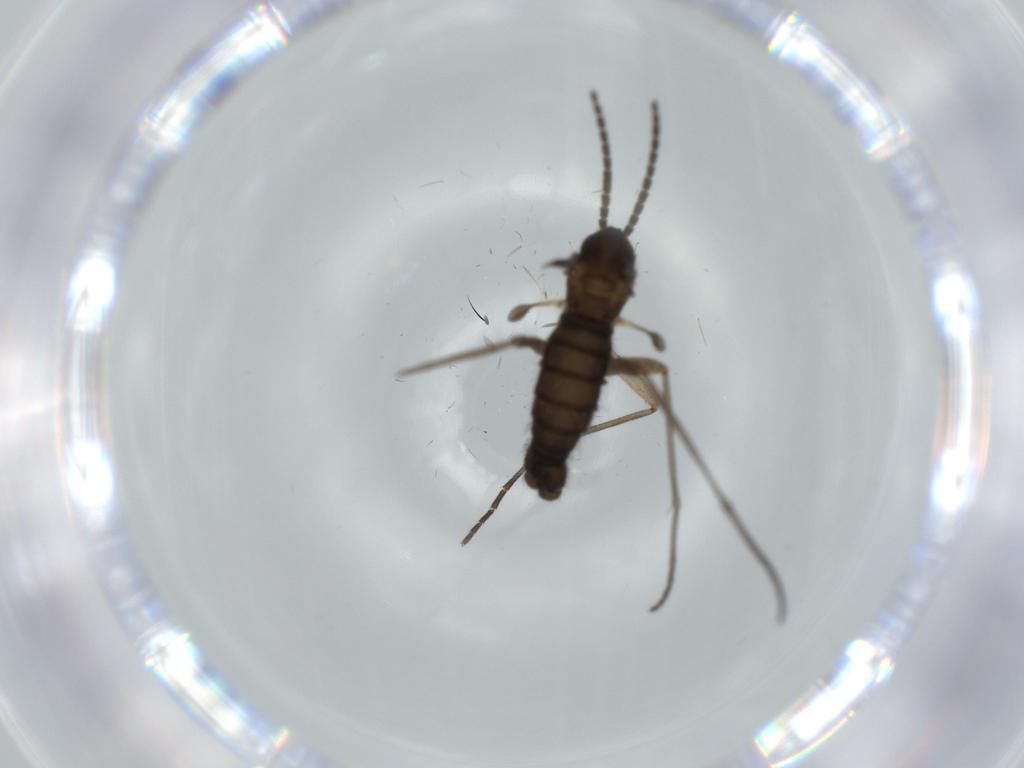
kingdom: Animalia
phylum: Arthropoda
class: Insecta
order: Diptera
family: Sciaridae
